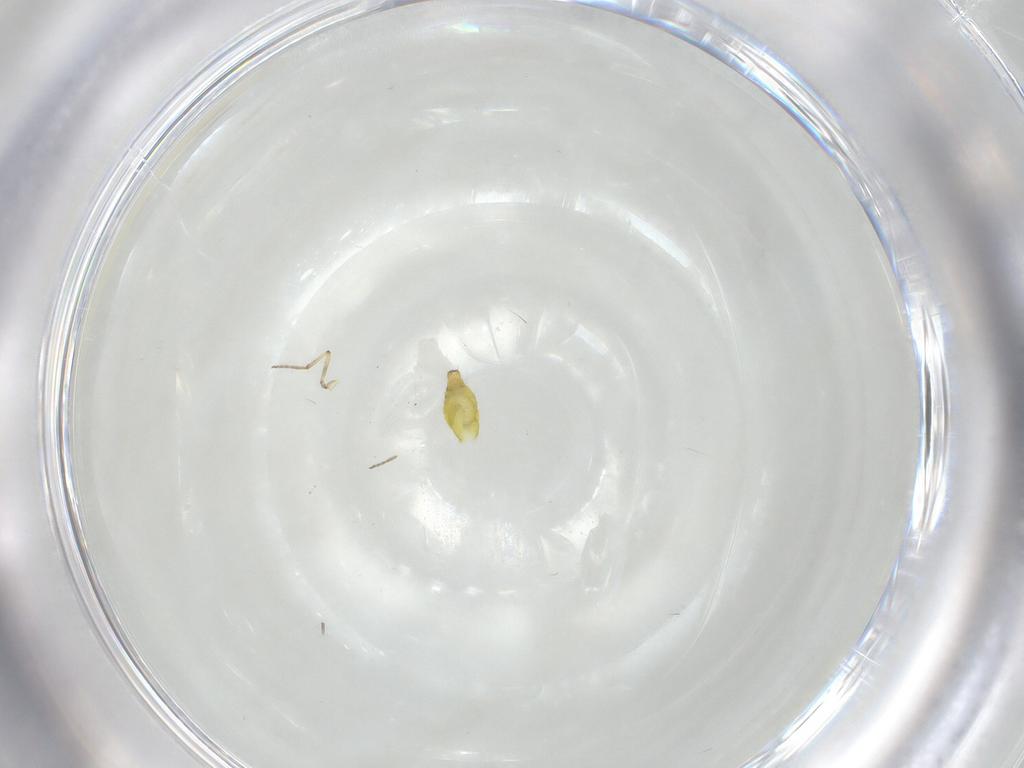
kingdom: Animalia
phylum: Arthropoda
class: Insecta
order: Diptera
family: Ceratopogonidae
